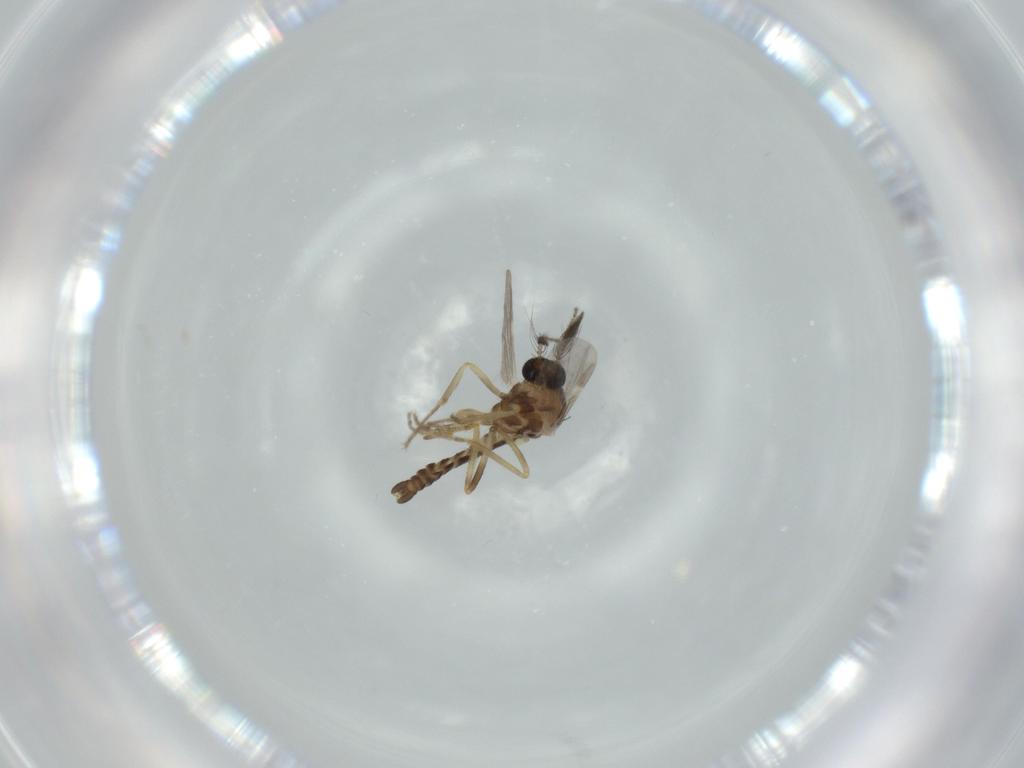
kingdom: Animalia
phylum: Arthropoda
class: Insecta
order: Diptera
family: Ceratopogonidae
